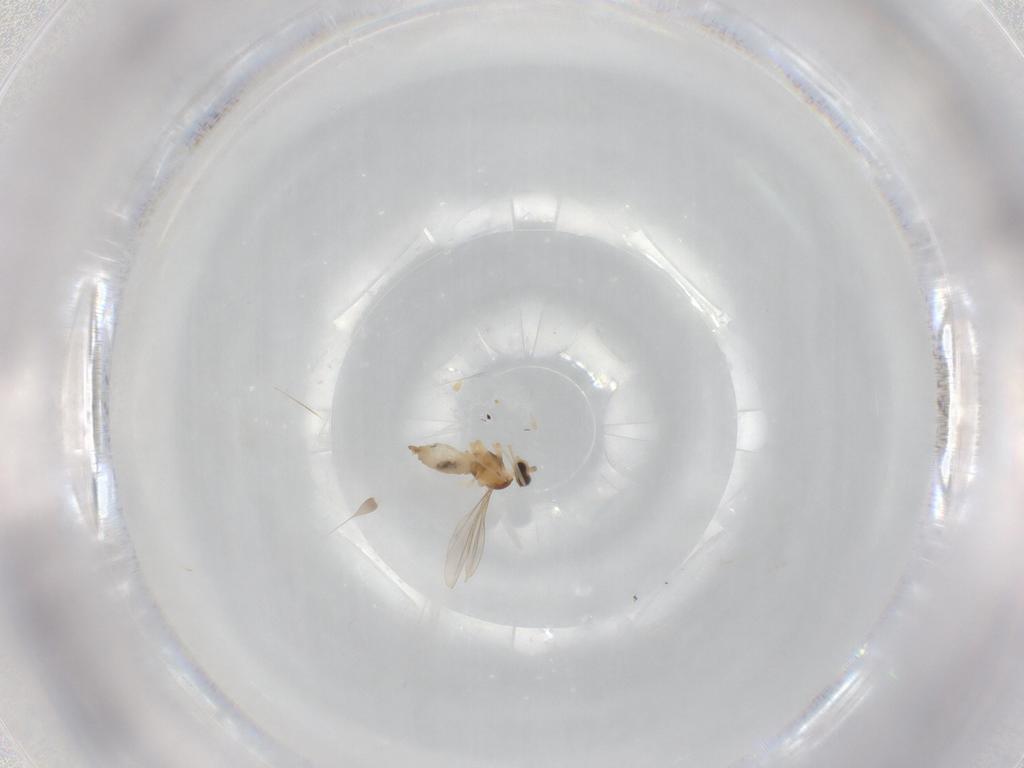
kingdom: Animalia
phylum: Arthropoda
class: Insecta
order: Diptera
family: Cecidomyiidae
